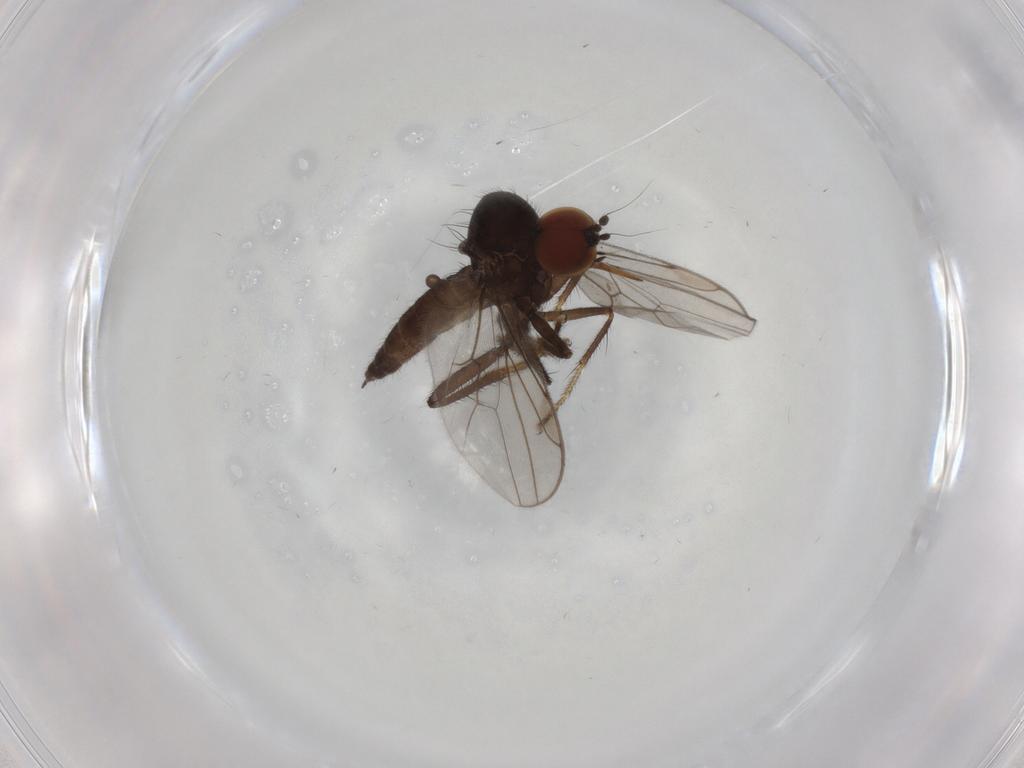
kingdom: Animalia
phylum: Arthropoda
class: Insecta
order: Diptera
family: Hybotidae
